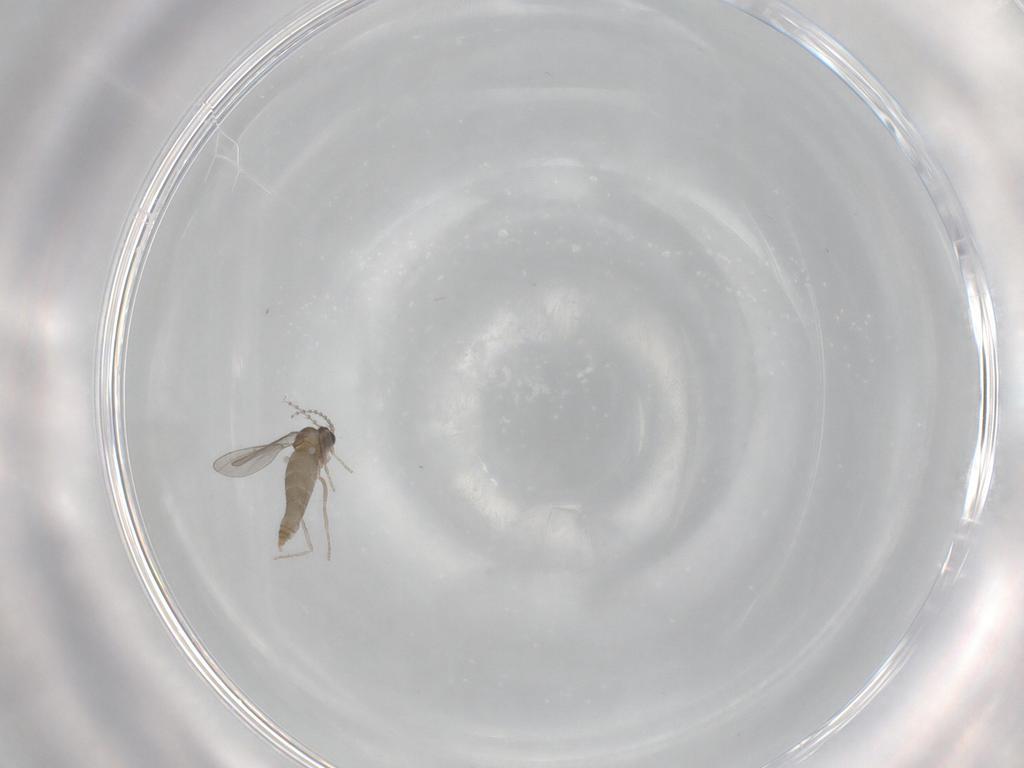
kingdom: Animalia
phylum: Arthropoda
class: Insecta
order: Diptera
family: Cecidomyiidae
